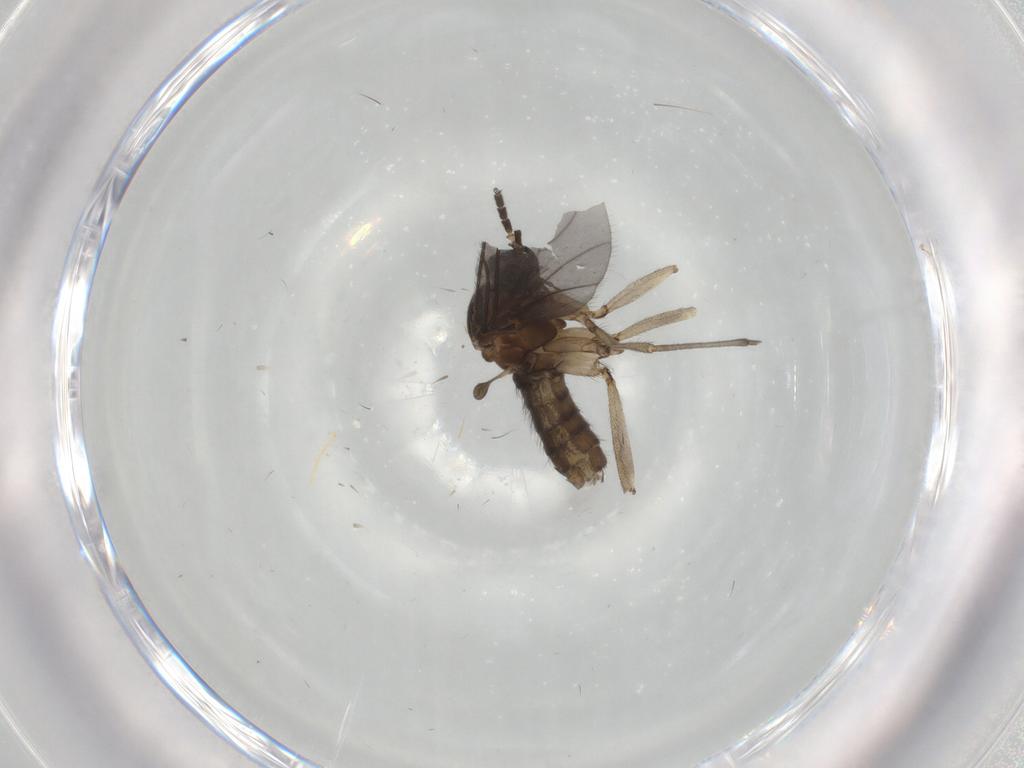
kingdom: Animalia
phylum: Arthropoda
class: Insecta
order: Diptera
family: Sciaridae
